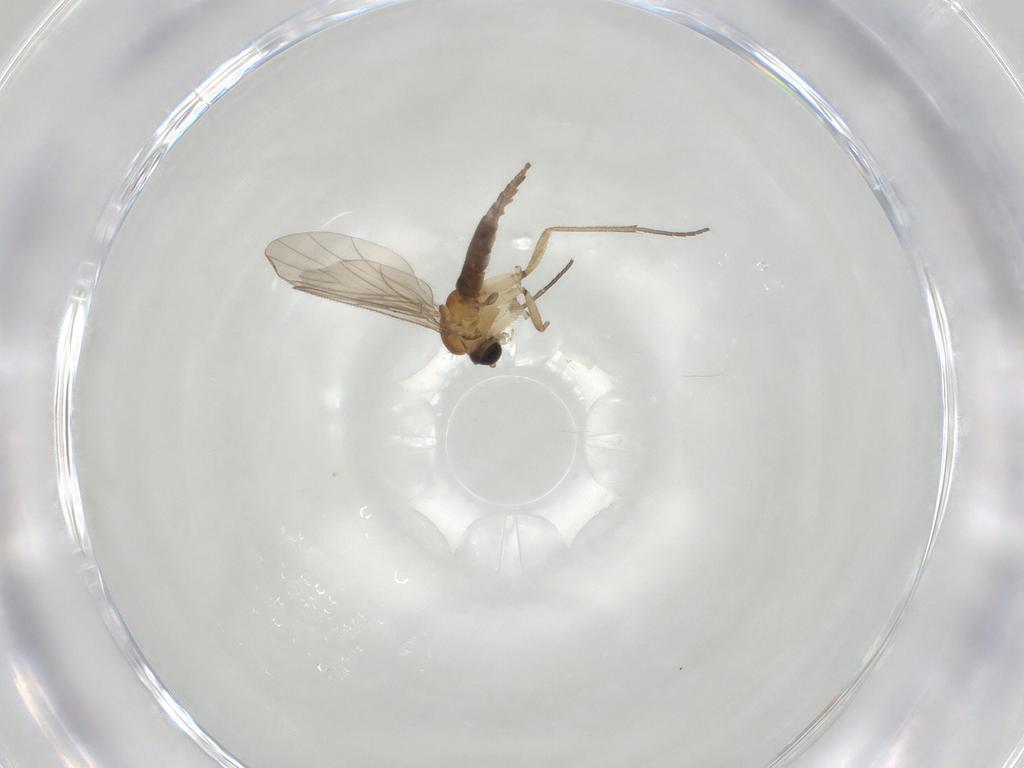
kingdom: Animalia
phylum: Arthropoda
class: Insecta
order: Diptera
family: Sciaridae
